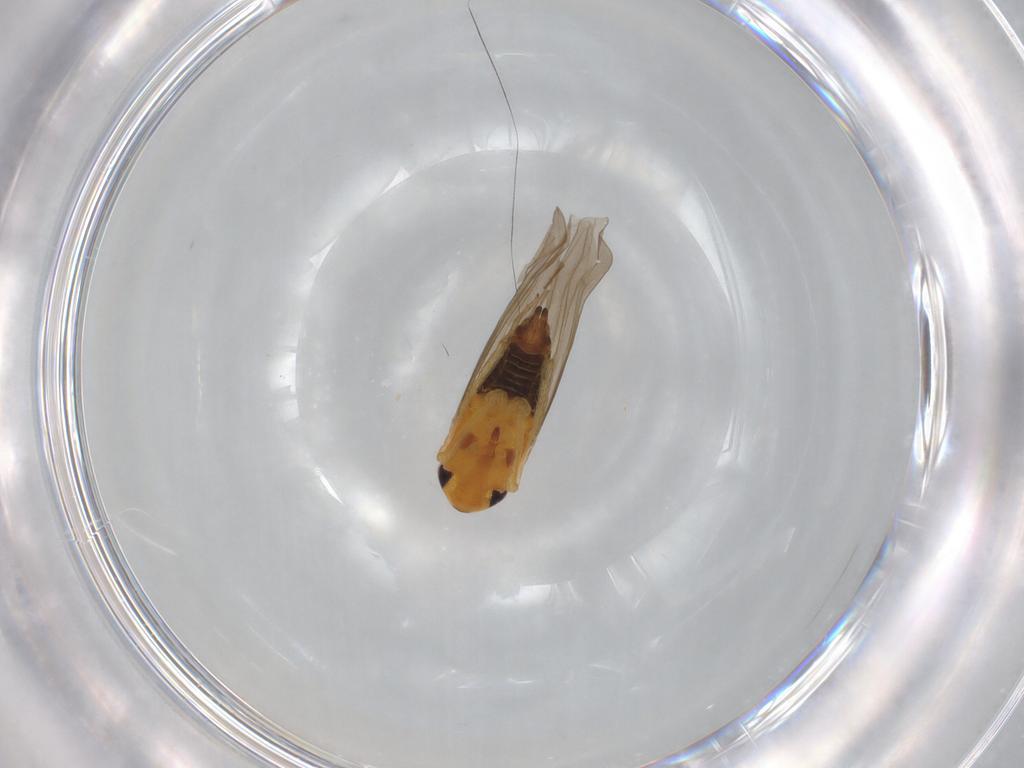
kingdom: Animalia
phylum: Arthropoda
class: Insecta
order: Hemiptera
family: Cicadellidae
